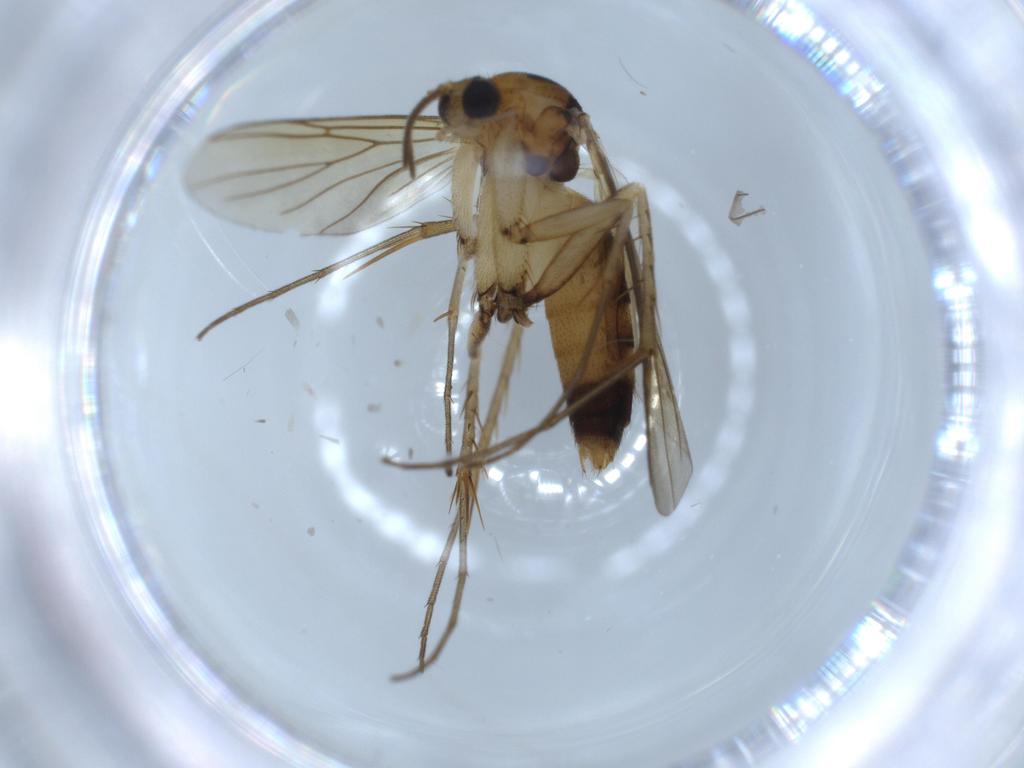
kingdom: Animalia
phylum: Arthropoda
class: Insecta
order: Diptera
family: Mycetophilidae
